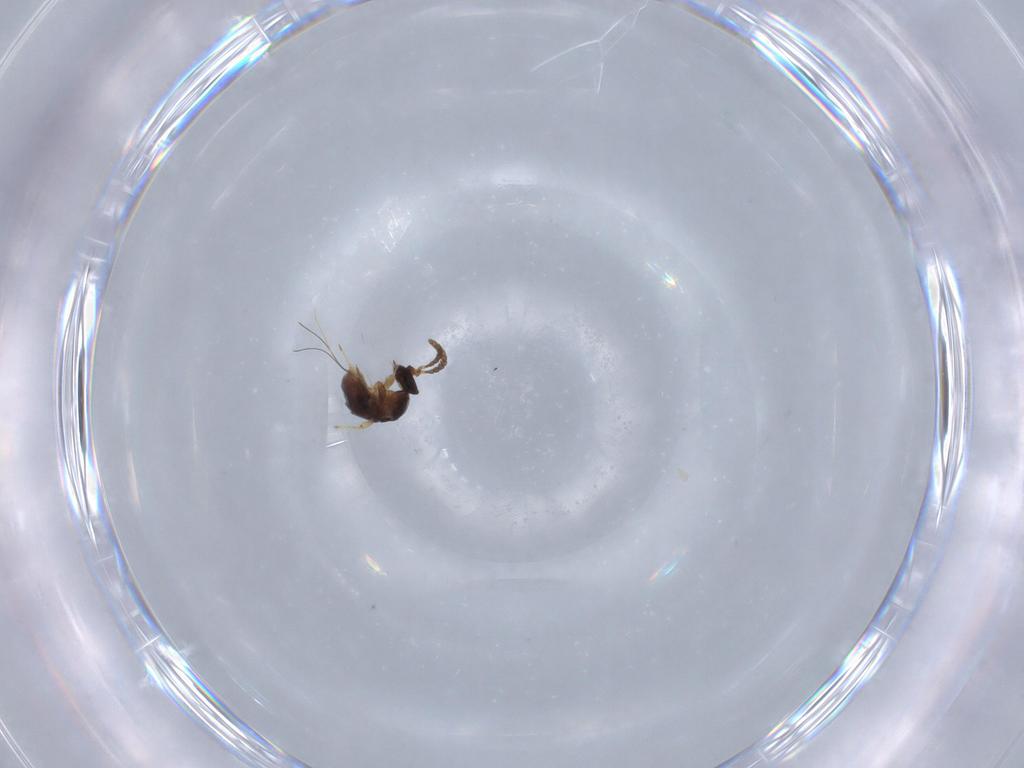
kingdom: Animalia
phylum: Arthropoda
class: Insecta
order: Hymenoptera
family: Agaonidae
